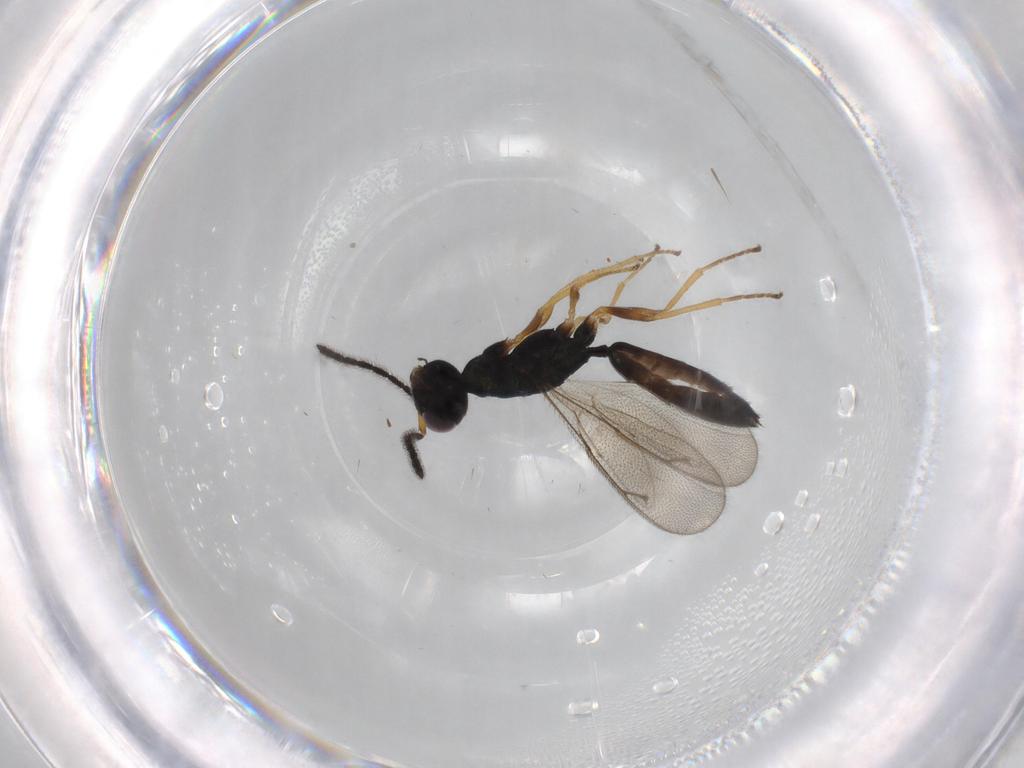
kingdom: Animalia
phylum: Arthropoda
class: Insecta
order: Hymenoptera
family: Pteromalidae
